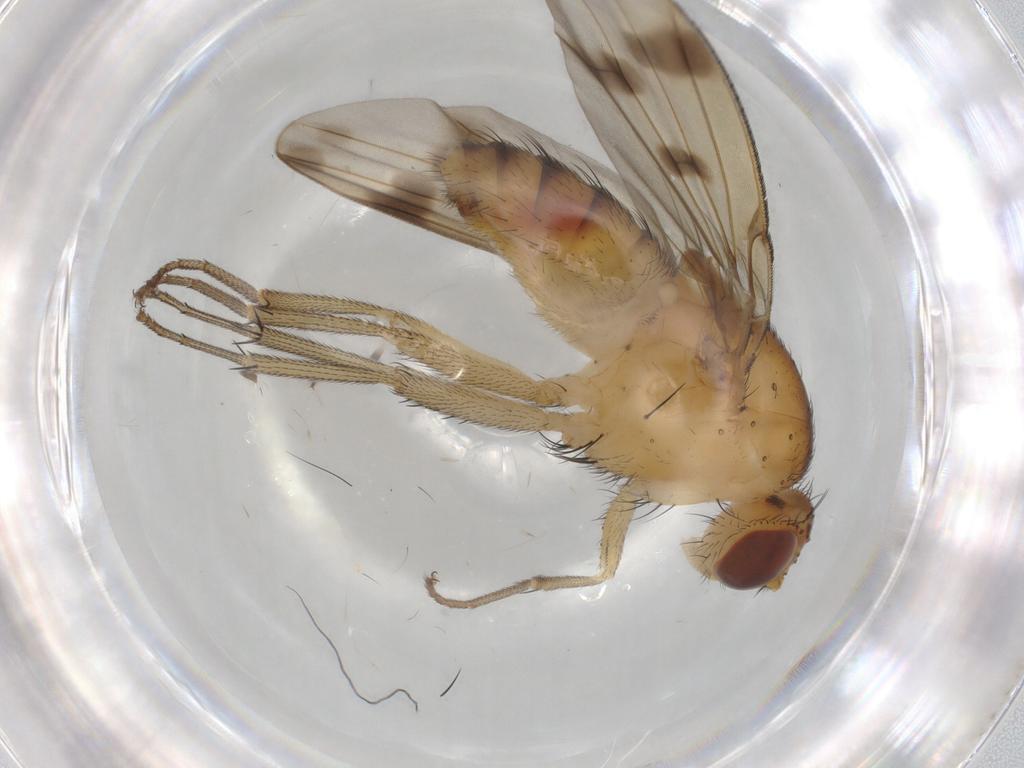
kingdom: Animalia
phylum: Arthropoda
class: Insecta
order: Diptera
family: Lauxaniidae
